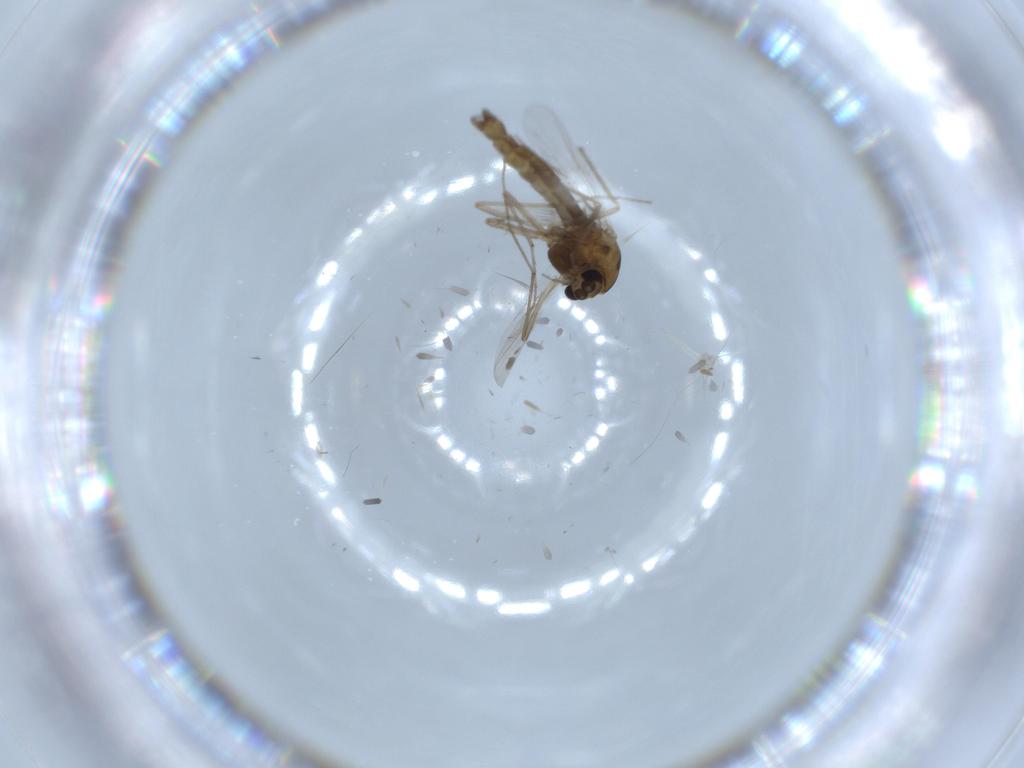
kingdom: Animalia
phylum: Arthropoda
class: Insecta
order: Diptera
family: Chironomidae
